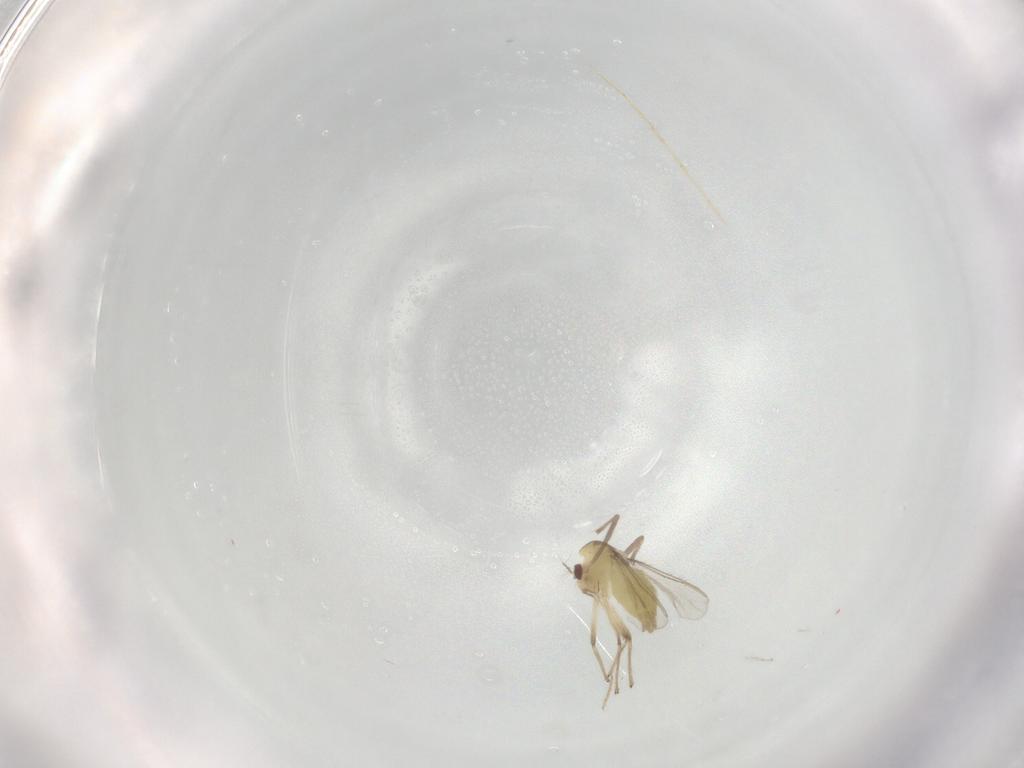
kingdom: Animalia
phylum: Arthropoda
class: Insecta
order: Diptera
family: Chironomidae
